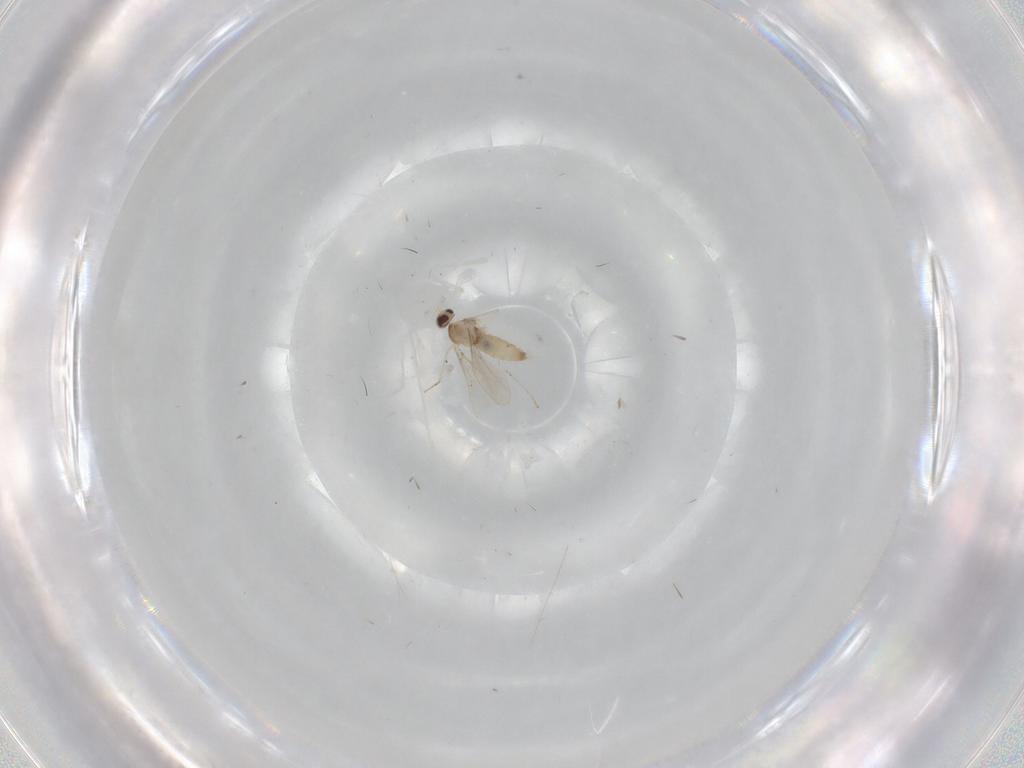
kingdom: Animalia
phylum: Arthropoda
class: Insecta
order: Diptera
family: Cecidomyiidae
